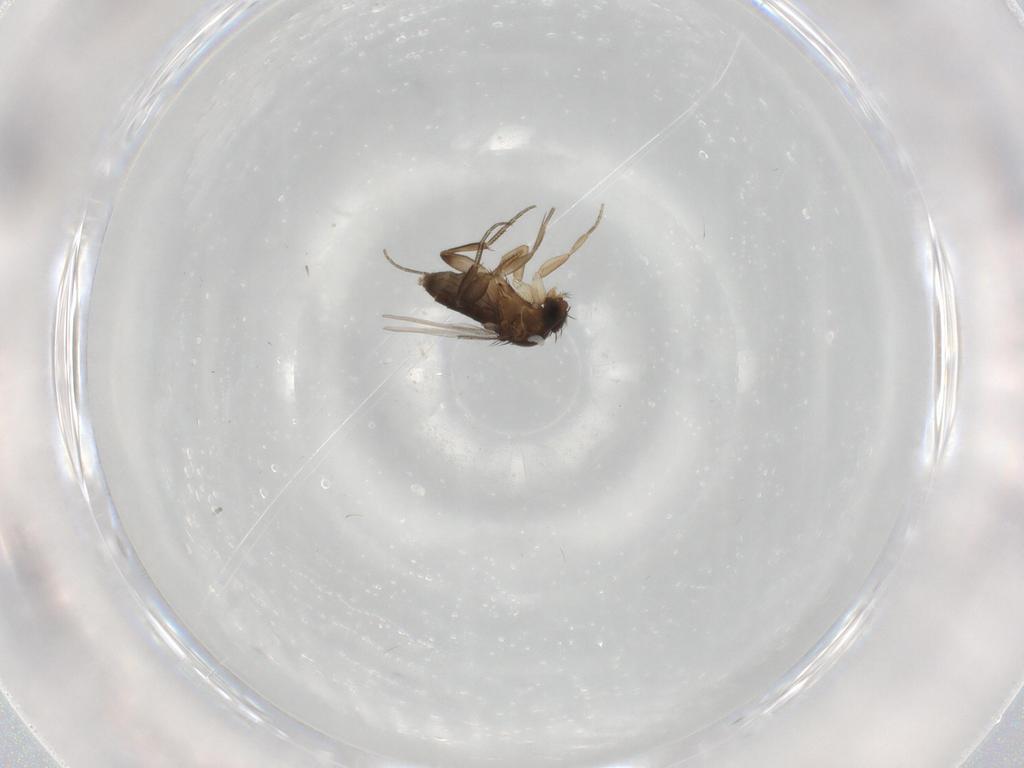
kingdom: Animalia
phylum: Arthropoda
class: Insecta
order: Diptera
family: Phoridae
